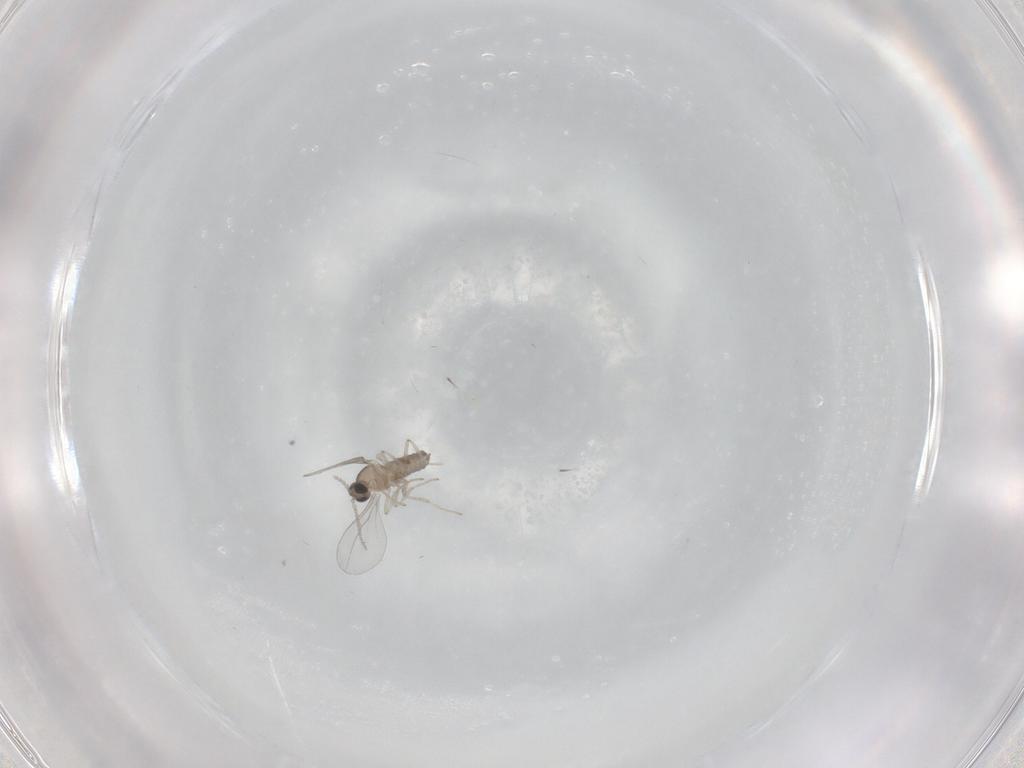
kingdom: Animalia
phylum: Arthropoda
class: Insecta
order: Diptera
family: Cecidomyiidae
